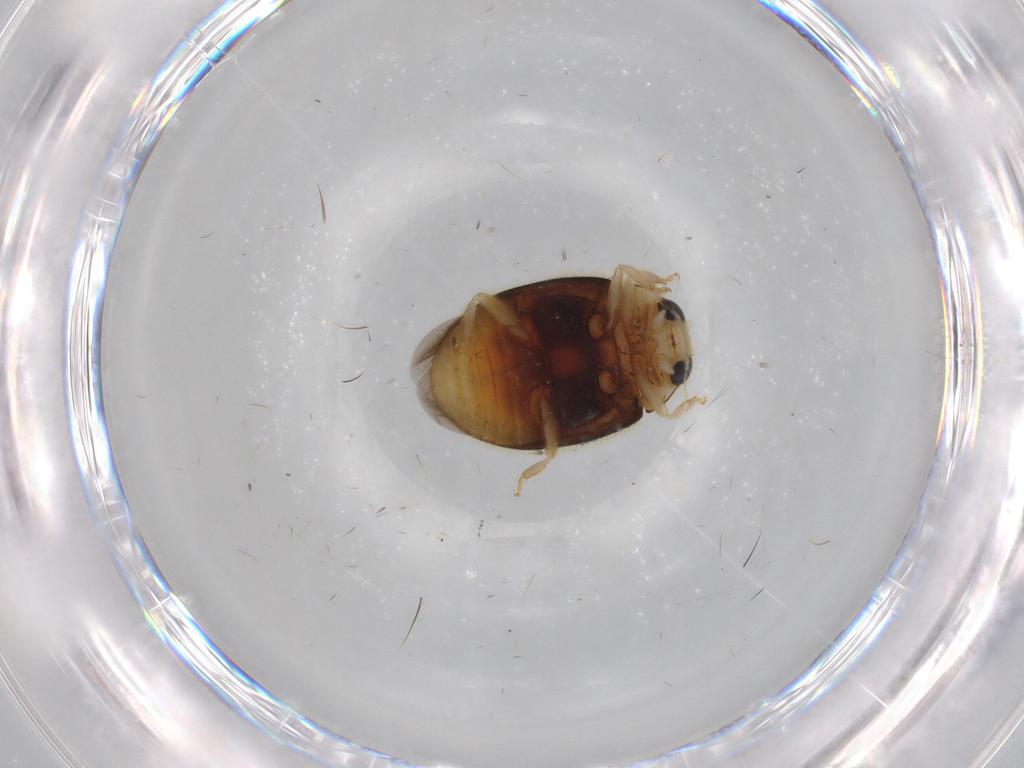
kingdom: Animalia
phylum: Arthropoda
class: Insecta
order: Coleoptera
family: Coccinellidae
